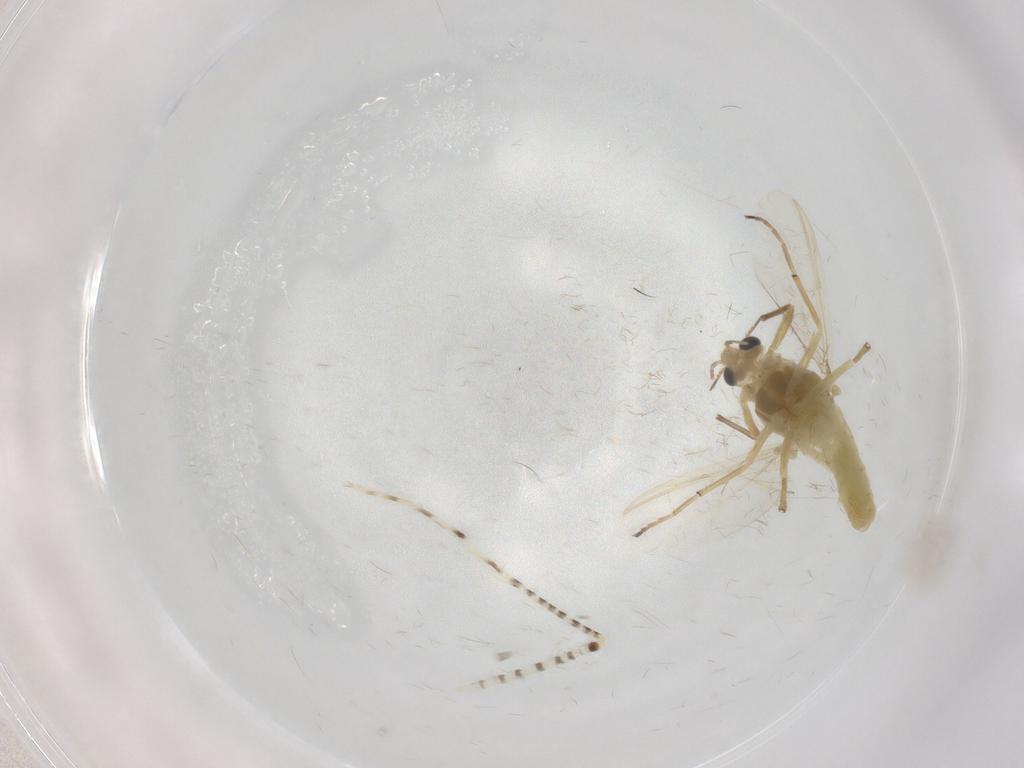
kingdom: Animalia
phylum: Arthropoda
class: Insecta
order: Diptera
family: Chironomidae
